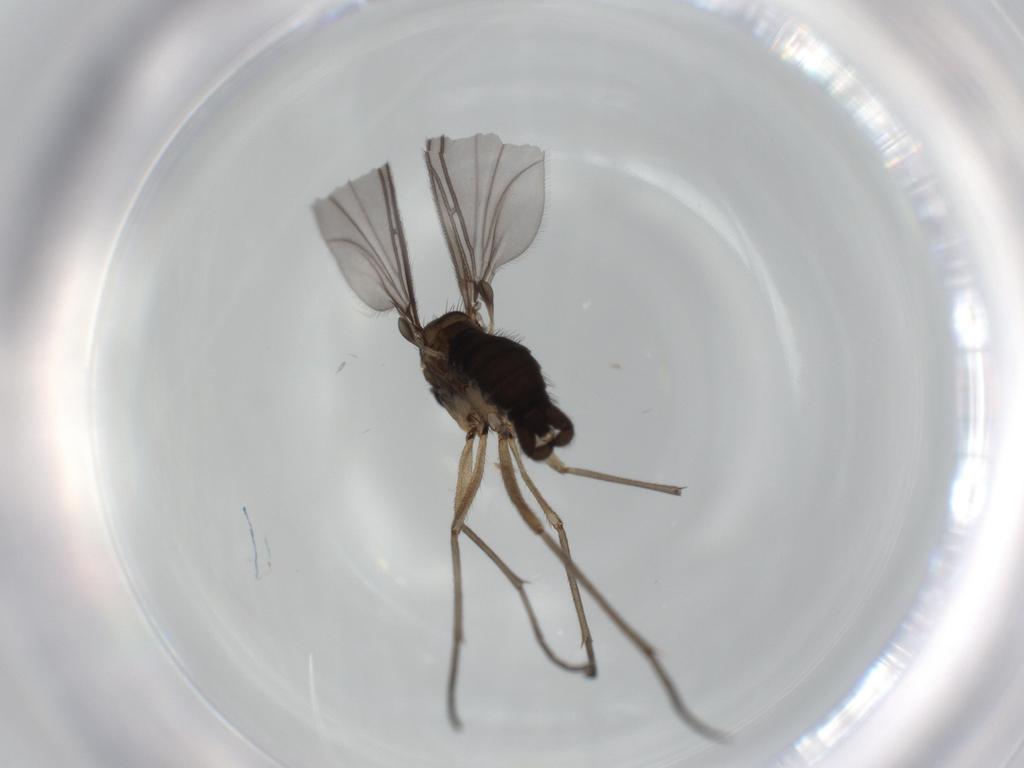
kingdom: Animalia
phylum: Arthropoda
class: Insecta
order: Diptera
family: Sciaridae
